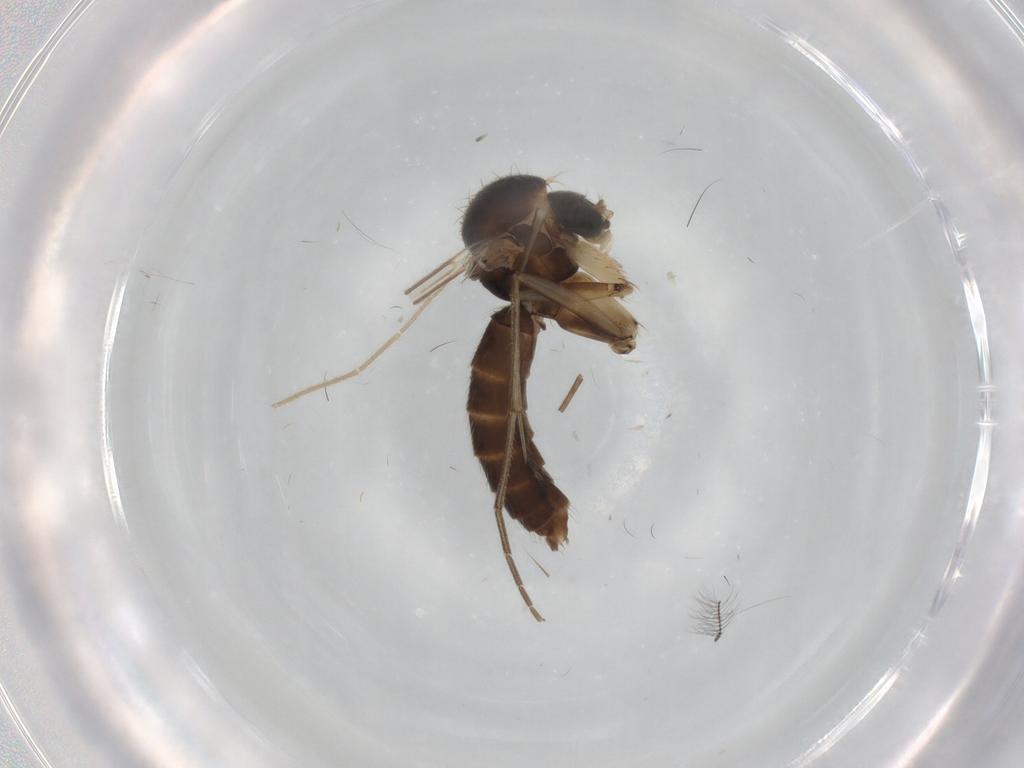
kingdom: Animalia
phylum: Arthropoda
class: Insecta
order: Diptera
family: Mycetophilidae
